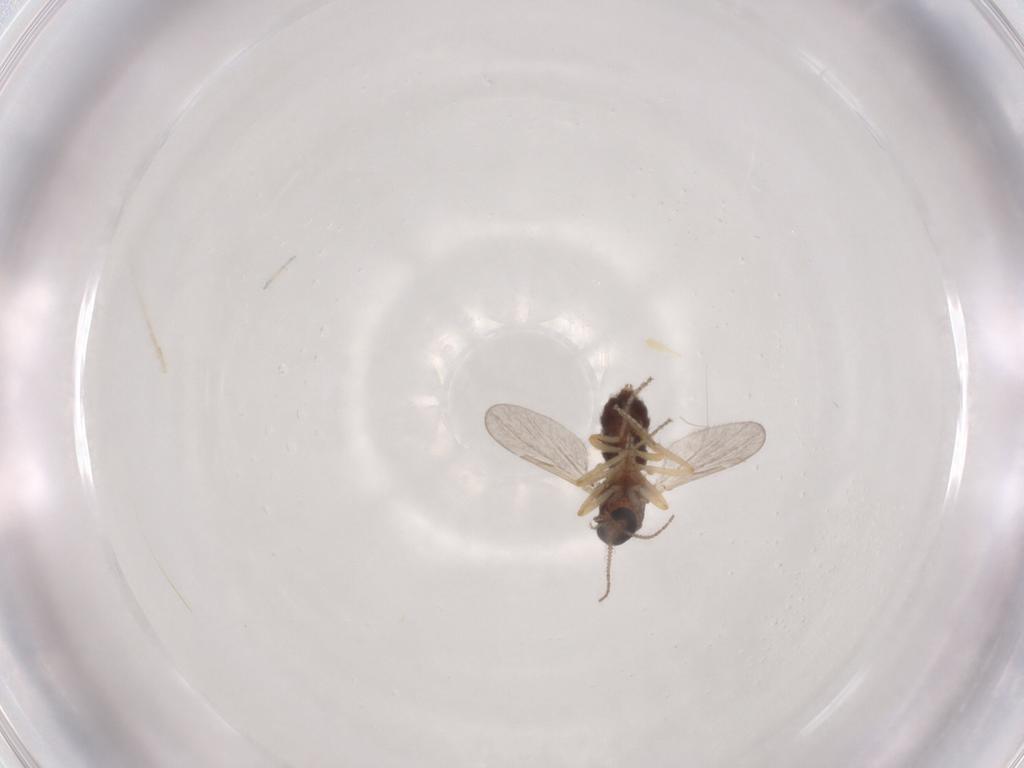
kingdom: Animalia
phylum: Arthropoda
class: Insecta
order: Diptera
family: Ceratopogonidae
